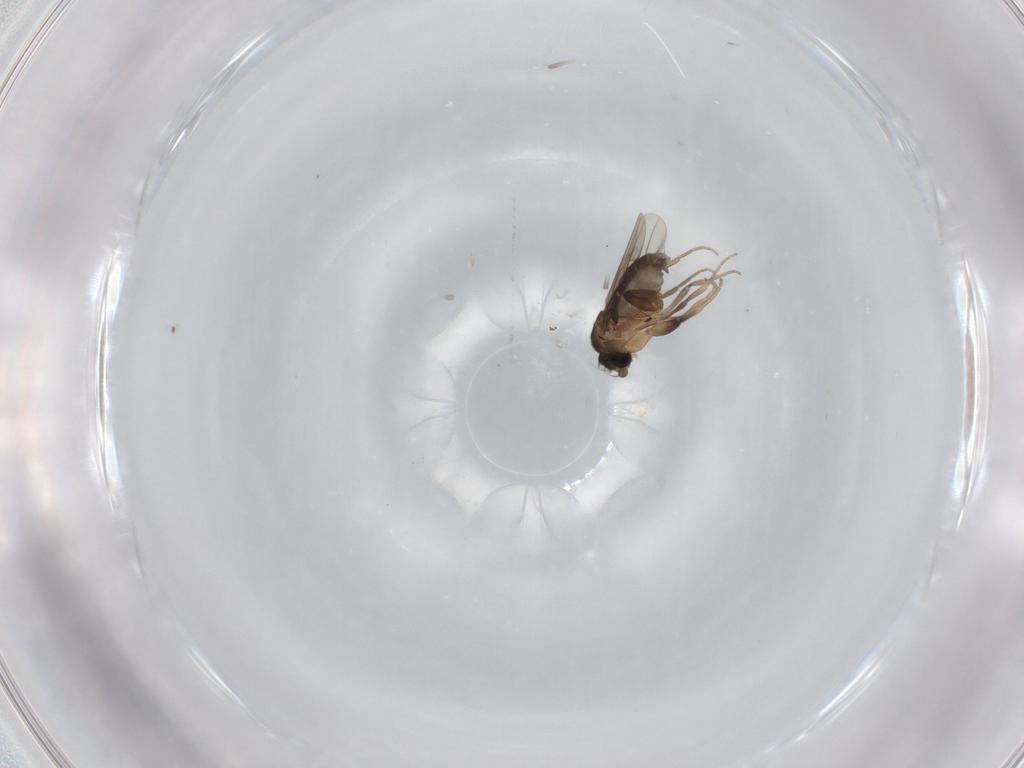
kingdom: Animalia
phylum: Arthropoda
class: Insecta
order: Diptera
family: Phoridae
